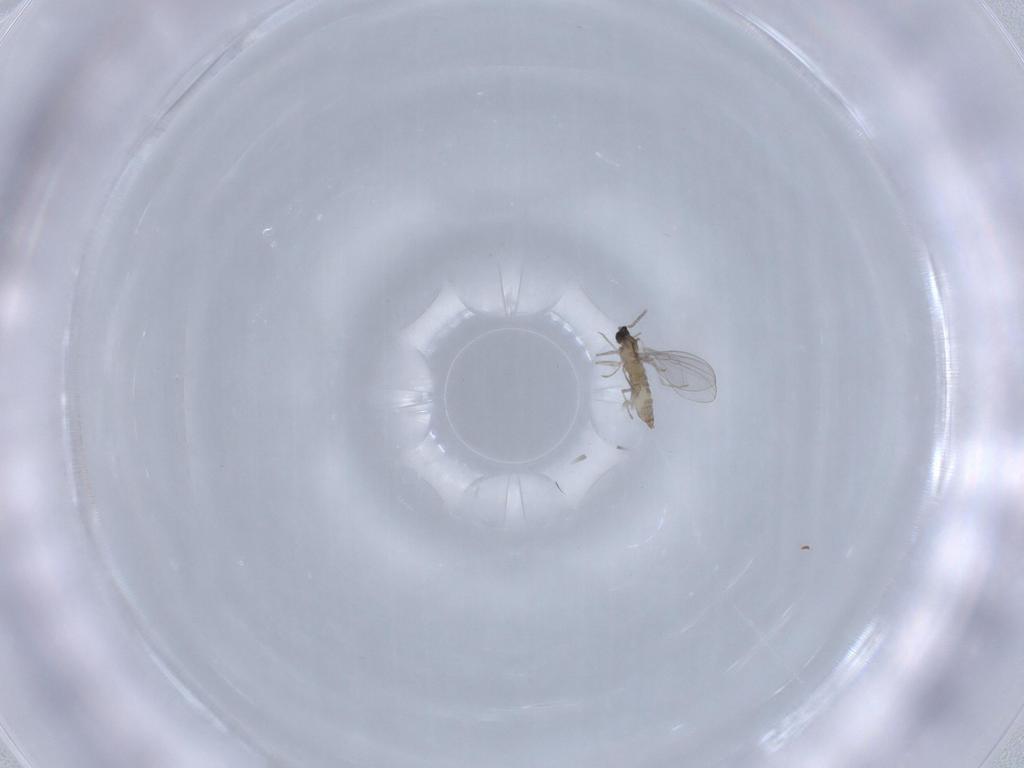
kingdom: Animalia
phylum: Arthropoda
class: Insecta
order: Diptera
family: Cecidomyiidae
